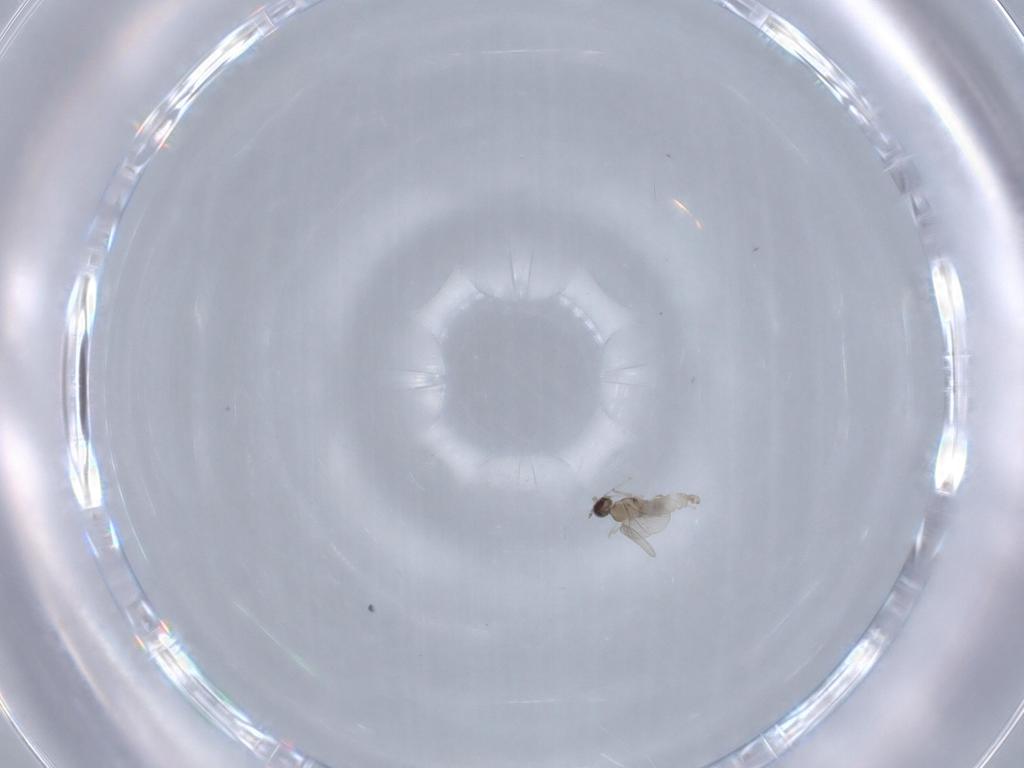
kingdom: Animalia
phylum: Arthropoda
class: Insecta
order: Diptera
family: Cecidomyiidae
